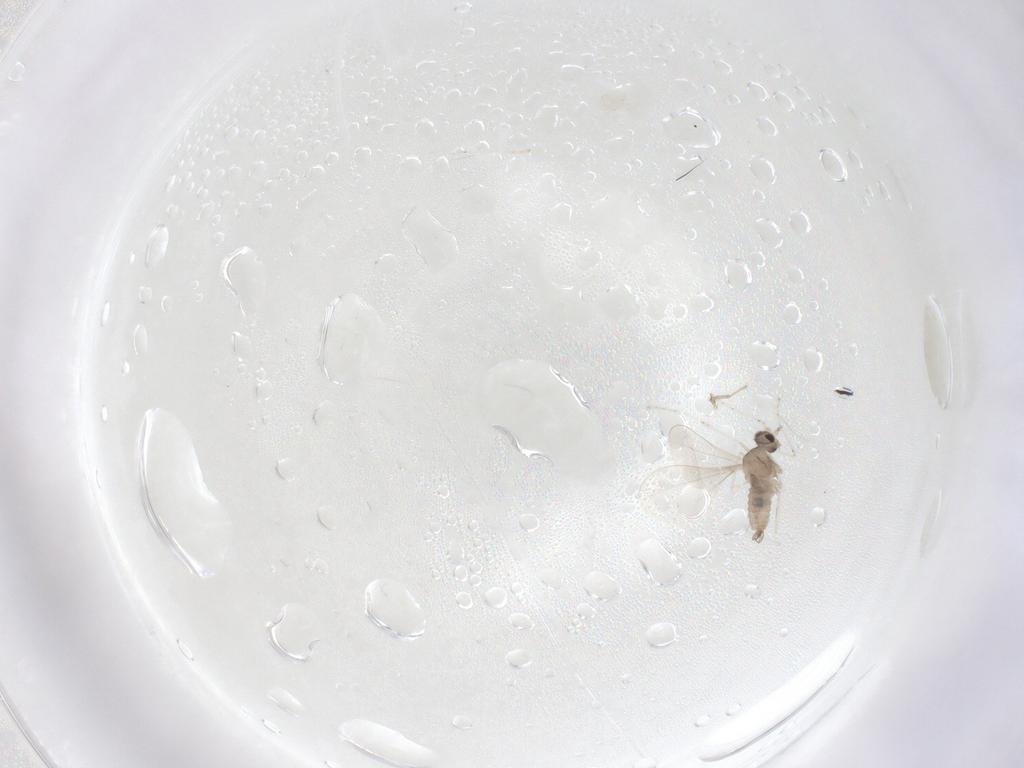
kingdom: Animalia
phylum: Arthropoda
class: Insecta
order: Diptera
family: Cecidomyiidae
